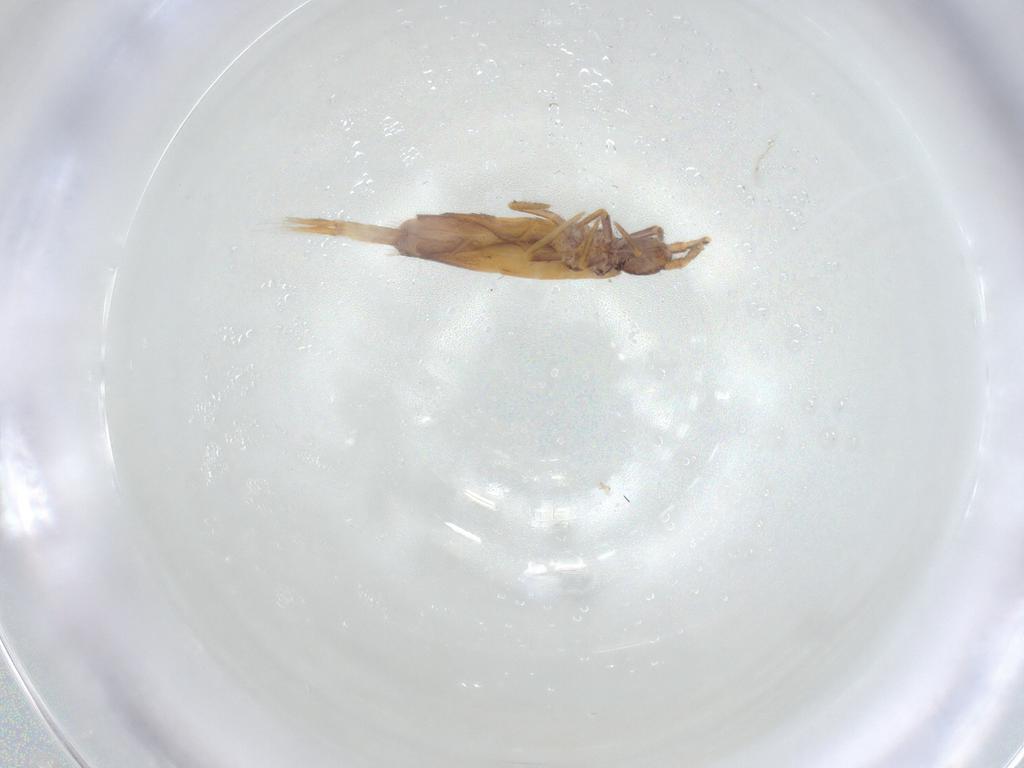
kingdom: Animalia
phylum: Arthropoda
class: Collembola
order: Entomobryomorpha
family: Entomobryidae
